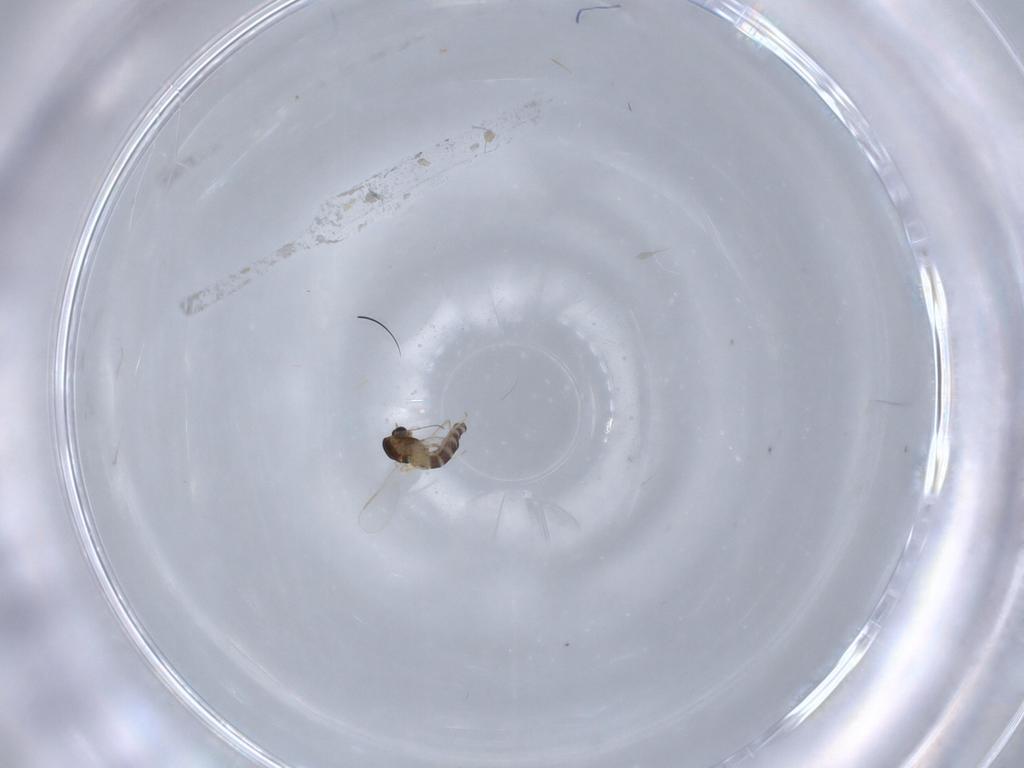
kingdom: Animalia
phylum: Arthropoda
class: Insecta
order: Diptera
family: Chironomidae
